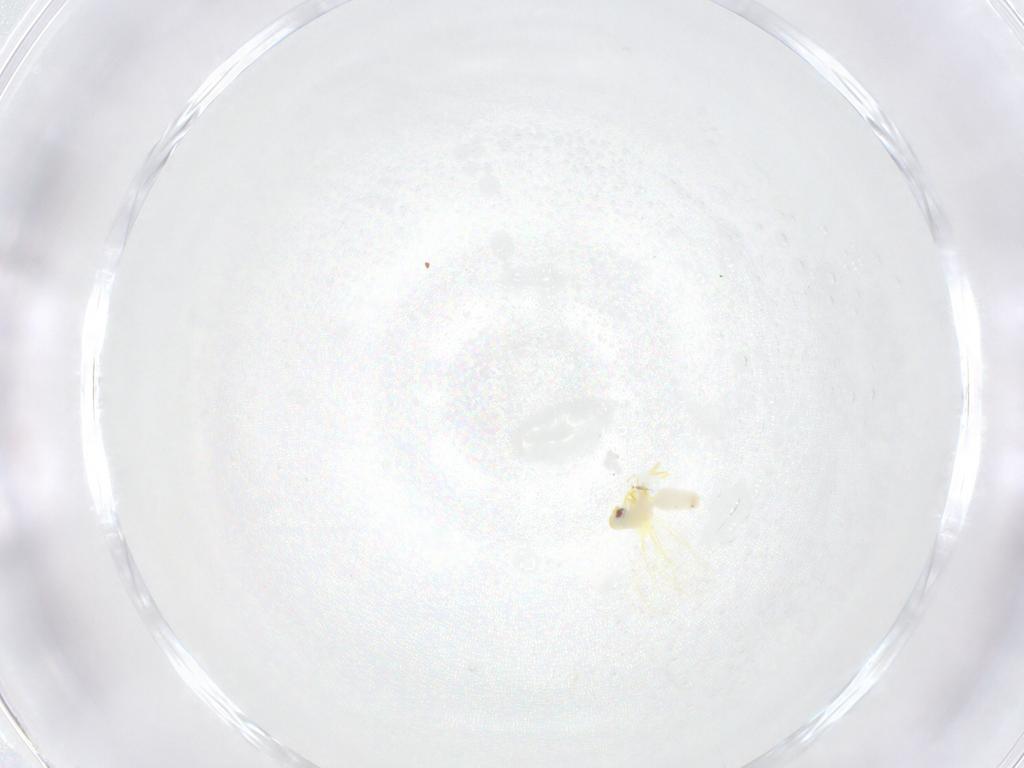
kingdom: Animalia
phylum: Arthropoda
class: Insecta
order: Hemiptera
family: Aleyrodidae
